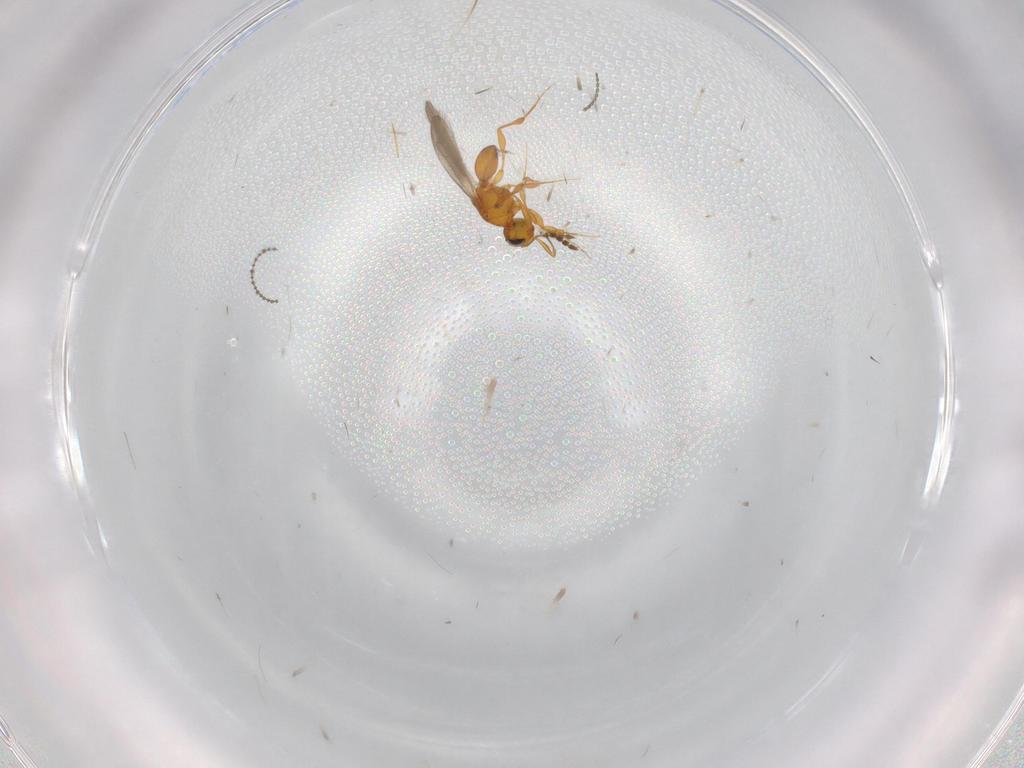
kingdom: Animalia
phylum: Arthropoda
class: Insecta
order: Hymenoptera
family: Platygastridae
